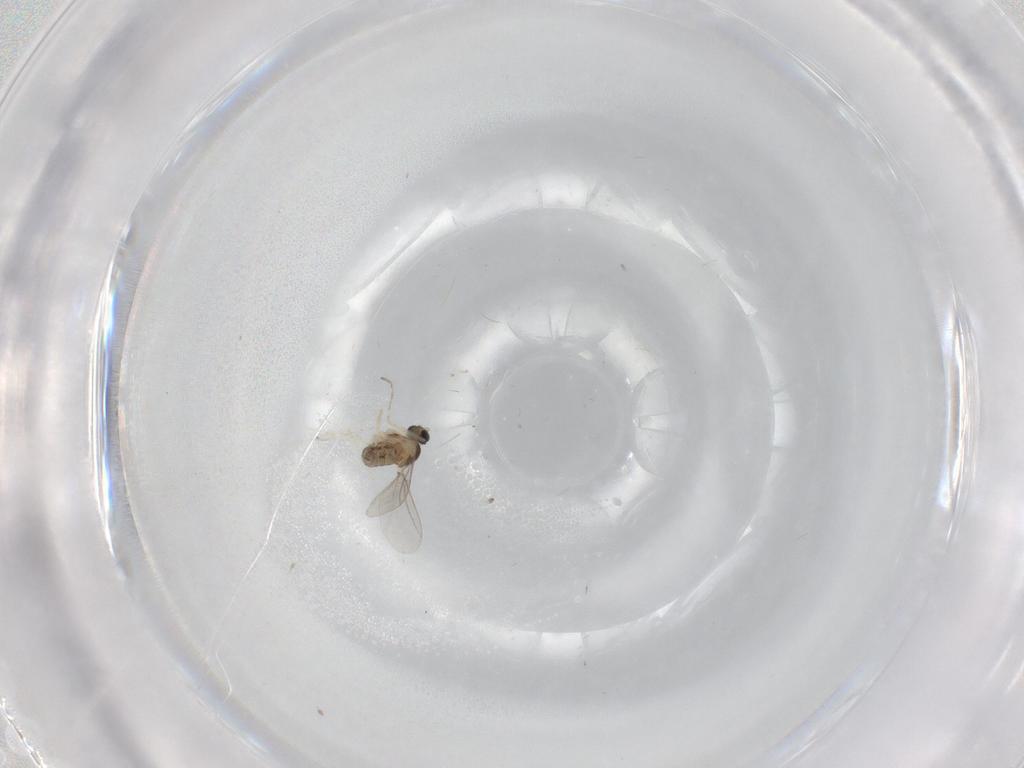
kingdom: Animalia
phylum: Arthropoda
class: Insecta
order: Diptera
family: Cecidomyiidae
